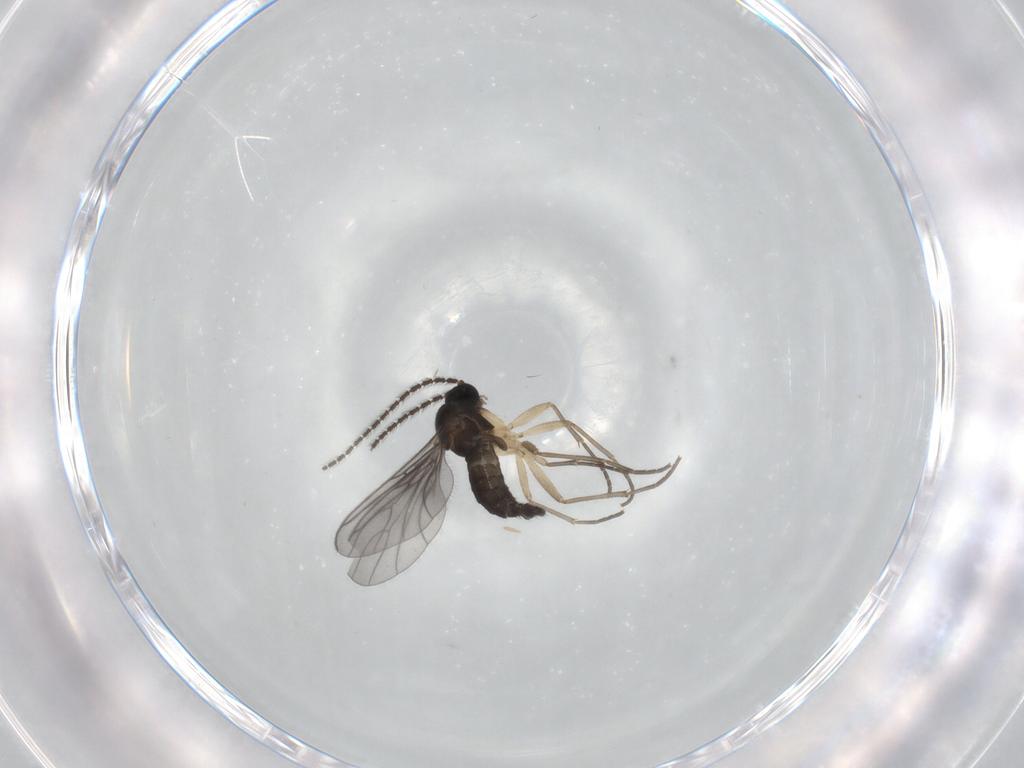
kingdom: Animalia
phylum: Arthropoda
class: Insecta
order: Diptera
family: Sciaridae
